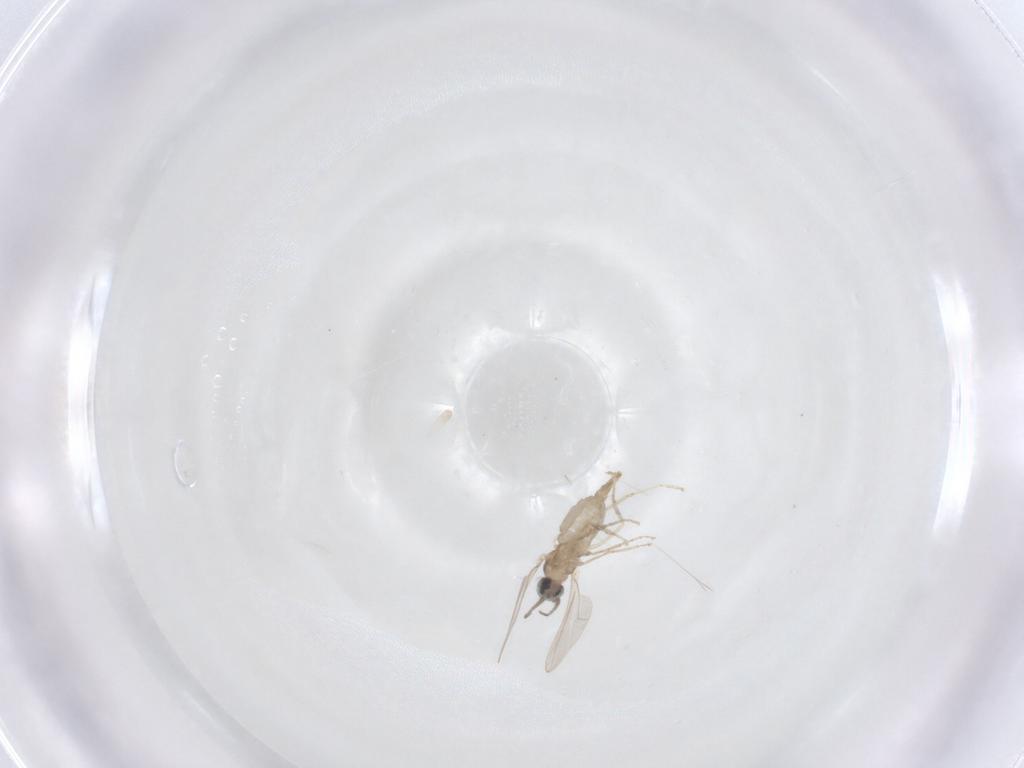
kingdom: Animalia
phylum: Arthropoda
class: Insecta
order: Diptera
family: Cecidomyiidae
